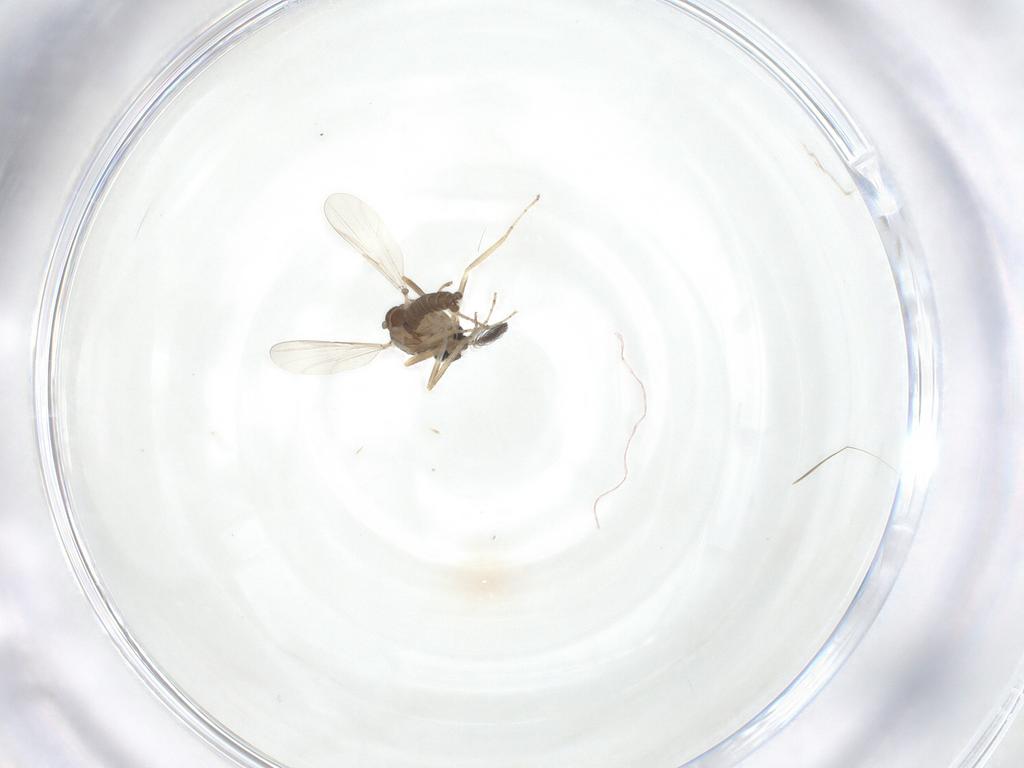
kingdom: Animalia
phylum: Arthropoda
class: Insecta
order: Diptera
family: Ceratopogonidae
